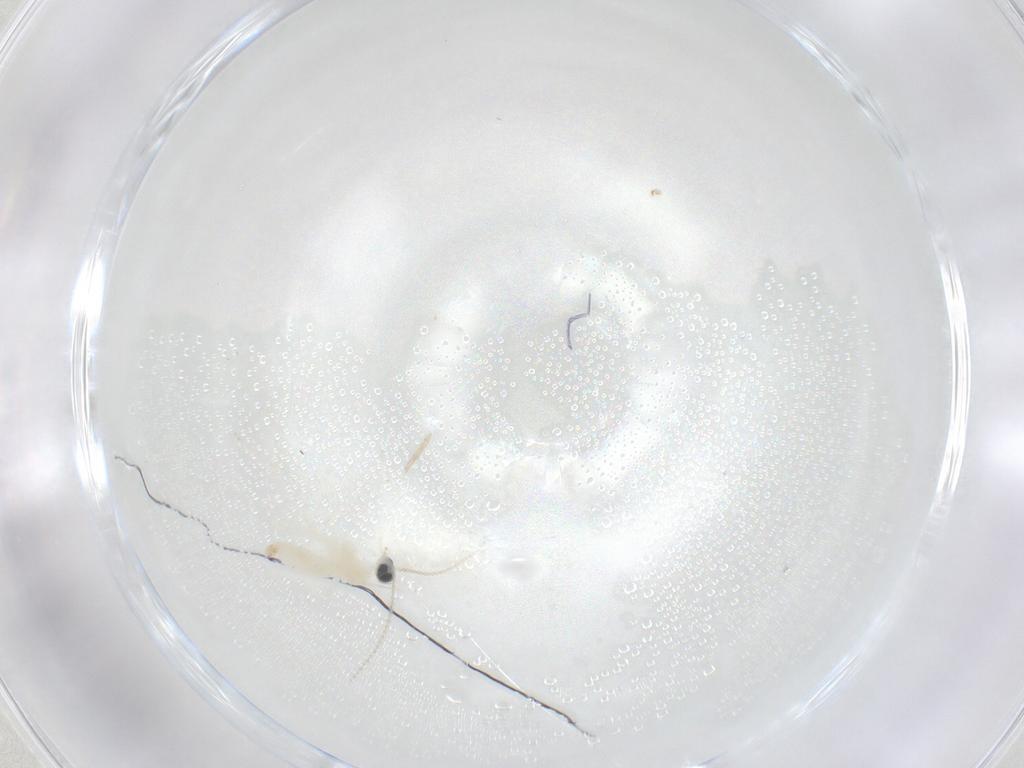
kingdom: Animalia
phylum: Arthropoda
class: Insecta
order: Diptera
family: Cecidomyiidae
